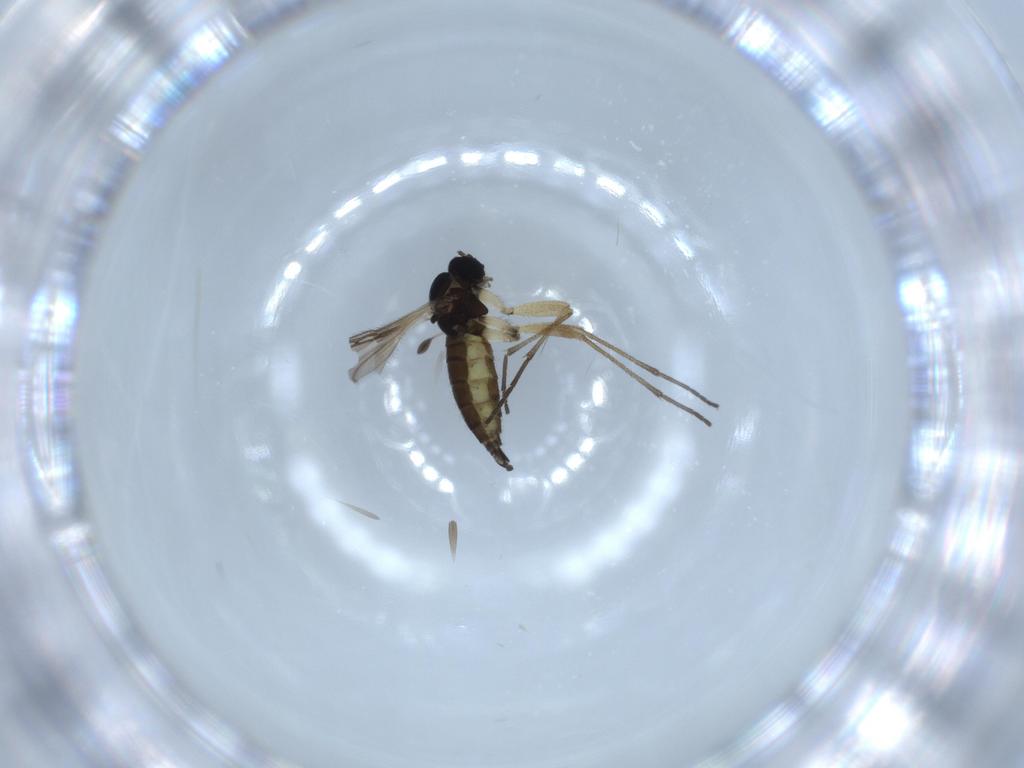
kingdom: Animalia
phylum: Arthropoda
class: Insecta
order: Diptera
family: Sciaridae
